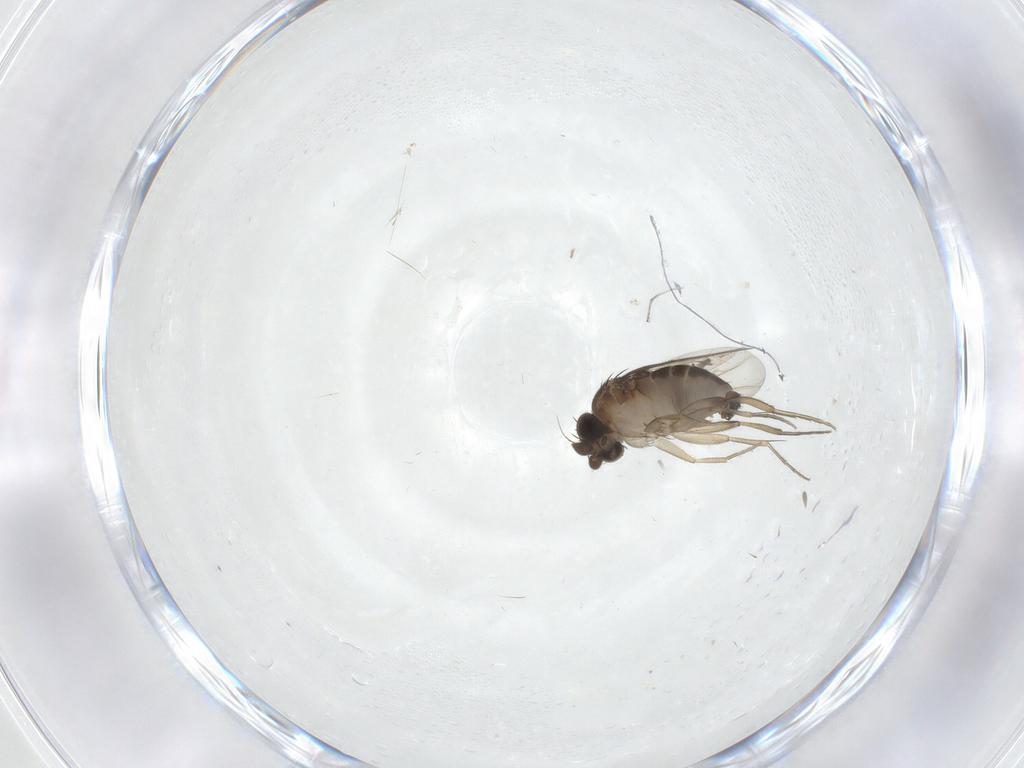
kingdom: Animalia
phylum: Arthropoda
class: Insecta
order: Diptera
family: Phoridae
